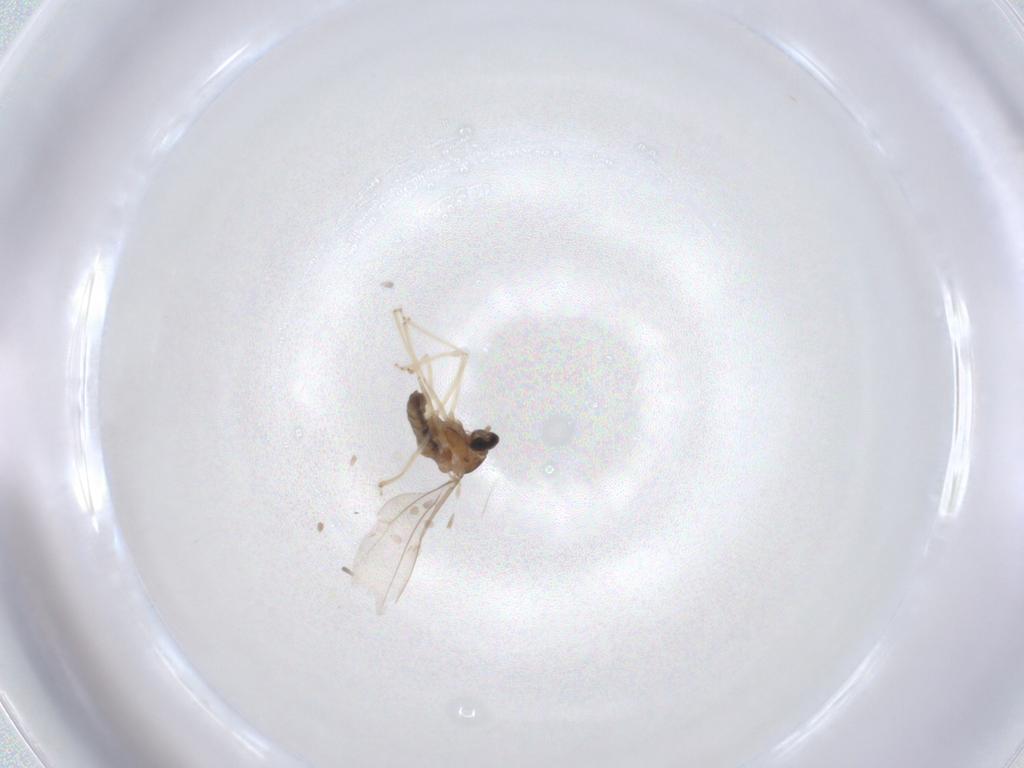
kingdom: Animalia
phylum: Arthropoda
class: Insecta
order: Diptera
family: Cecidomyiidae
